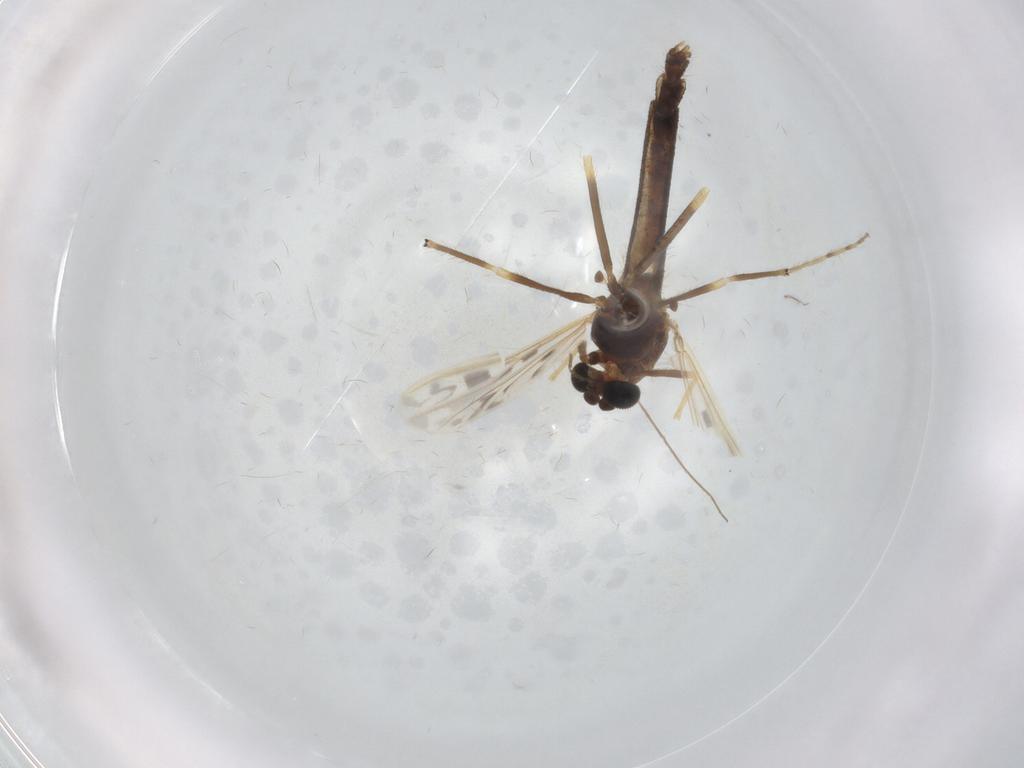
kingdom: Animalia
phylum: Arthropoda
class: Insecta
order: Diptera
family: Chironomidae
